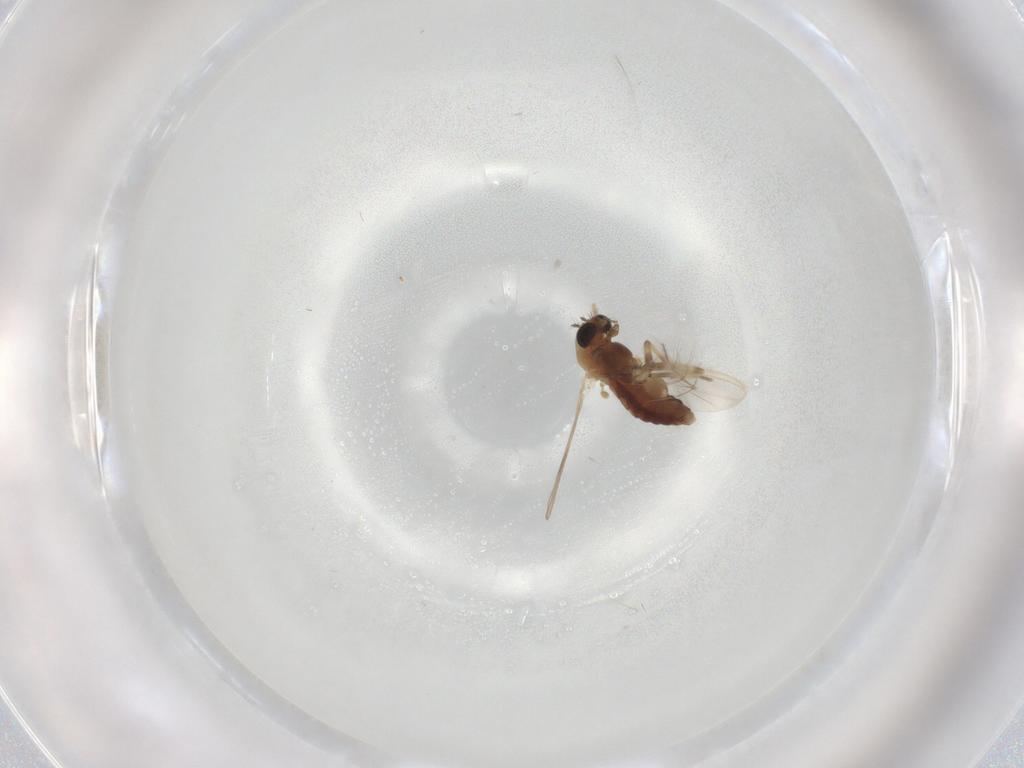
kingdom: Animalia
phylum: Arthropoda
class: Insecta
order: Diptera
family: Chironomidae
